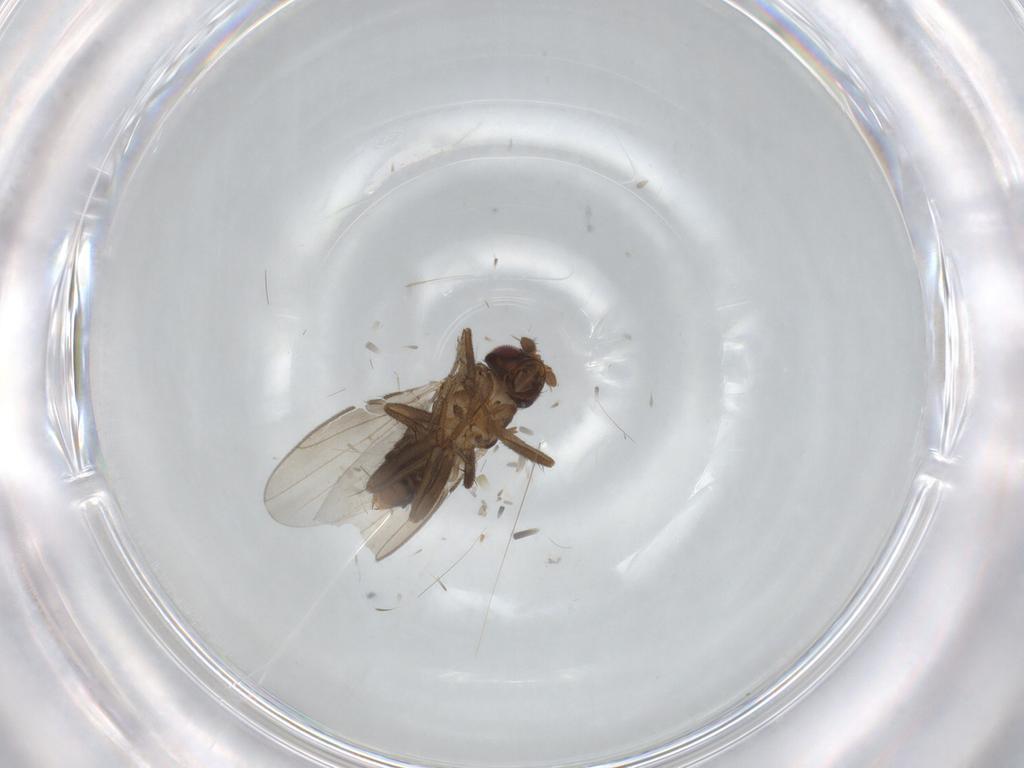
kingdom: Animalia
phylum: Arthropoda
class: Insecta
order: Diptera
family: Sphaeroceridae
